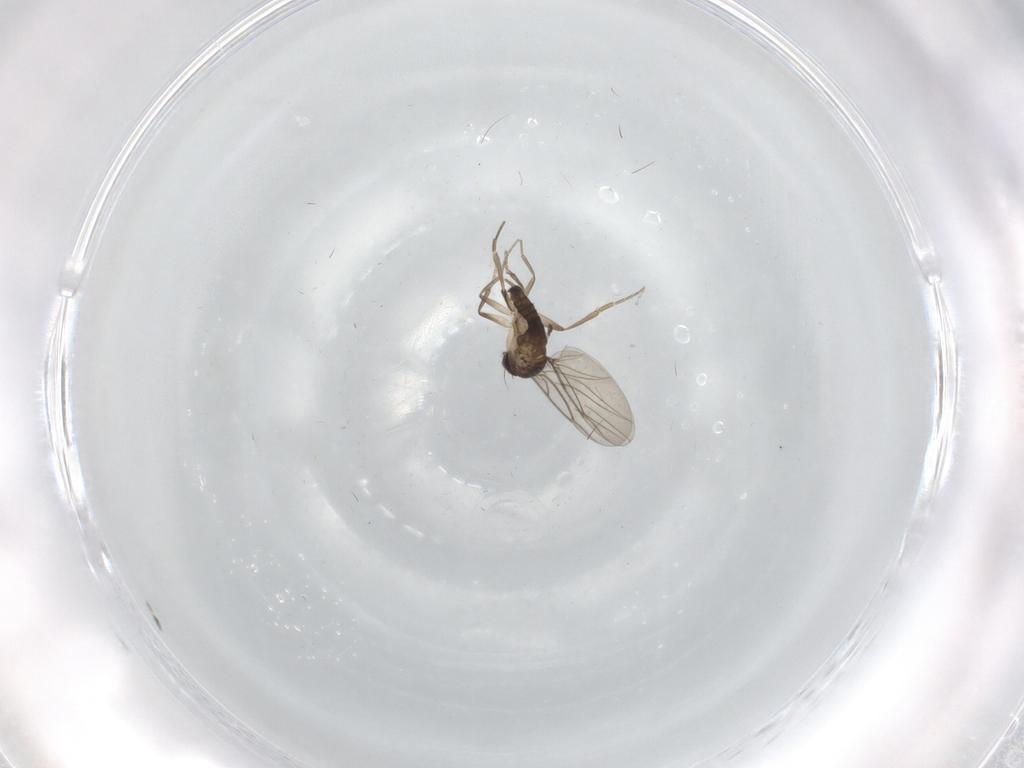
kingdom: Animalia
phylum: Arthropoda
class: Insecta
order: Diptera
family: Phoridae
